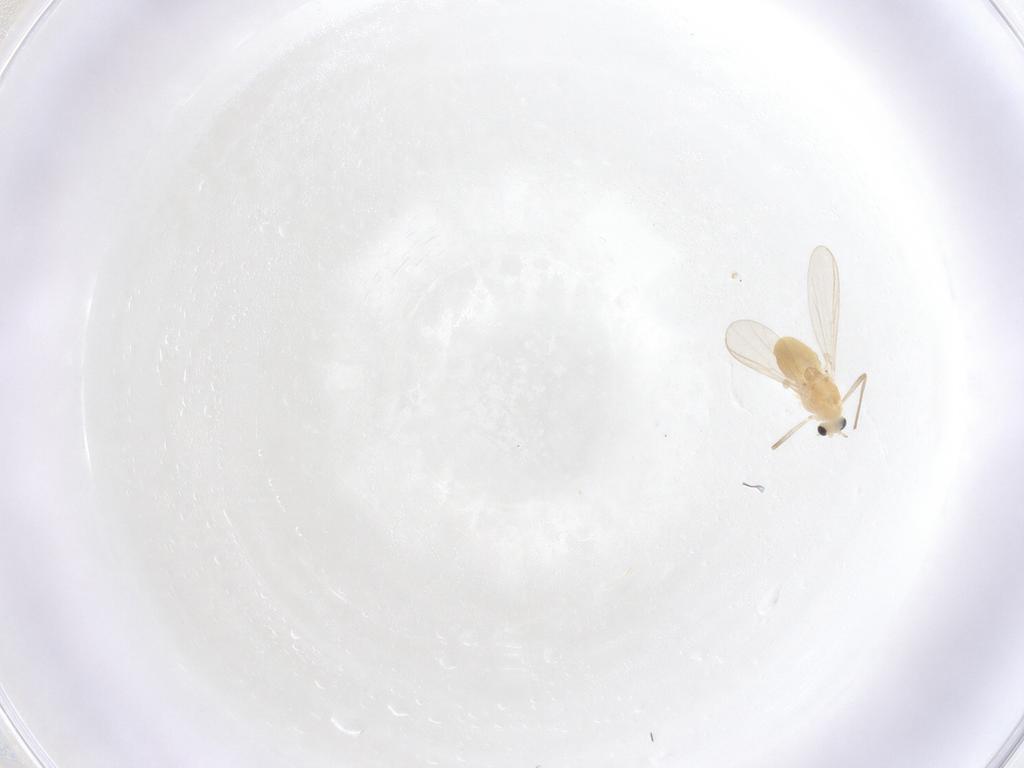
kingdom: Animalia
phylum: Arthropoda
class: Insecta
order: Diptera
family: Chironomidae
